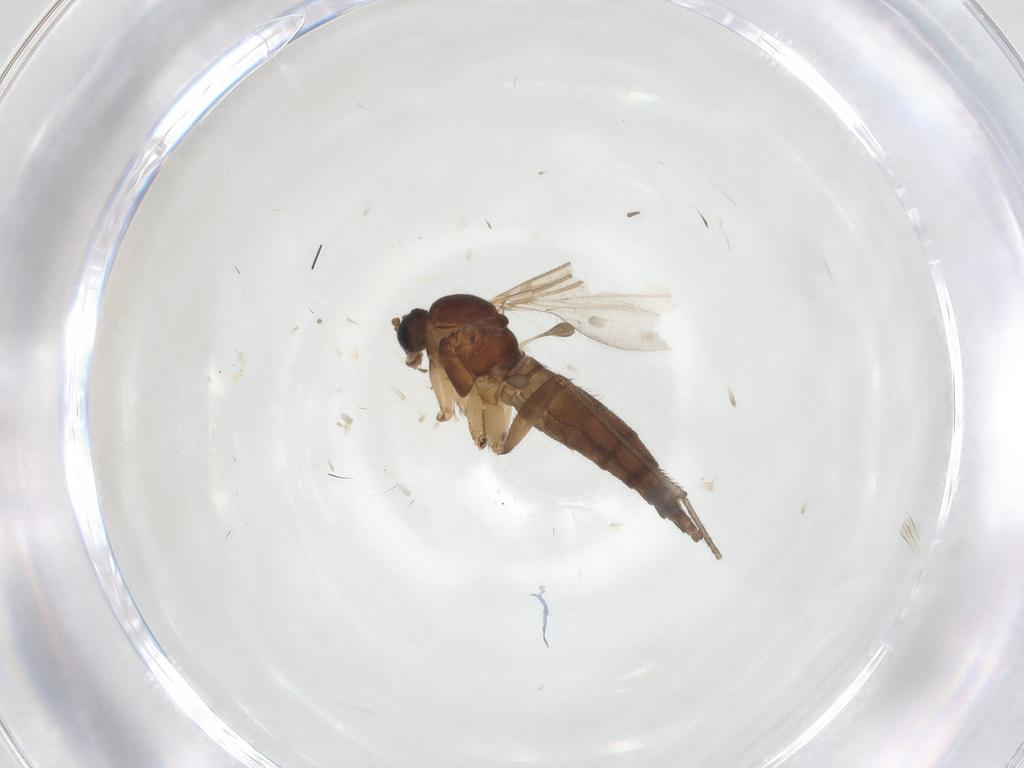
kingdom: Animalia
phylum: Arthropoda
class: Insecta
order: Diptera
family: Sciaridae
